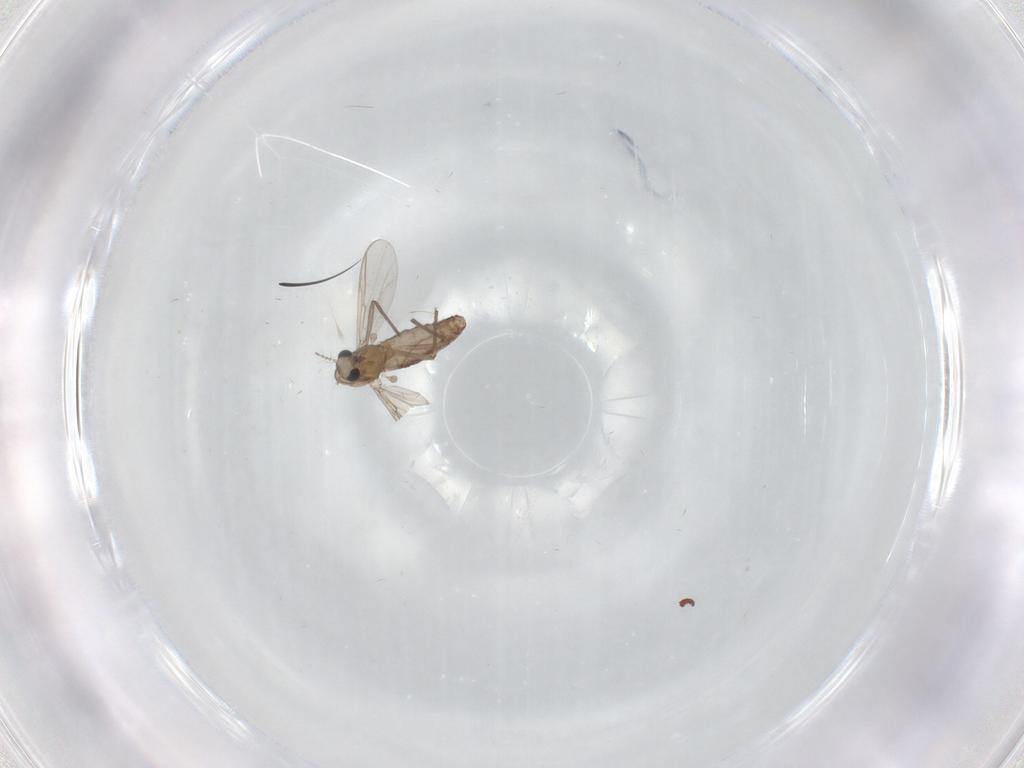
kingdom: Animalia
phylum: Arthropoda
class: Insecta
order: Diptera
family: Chironomidae
